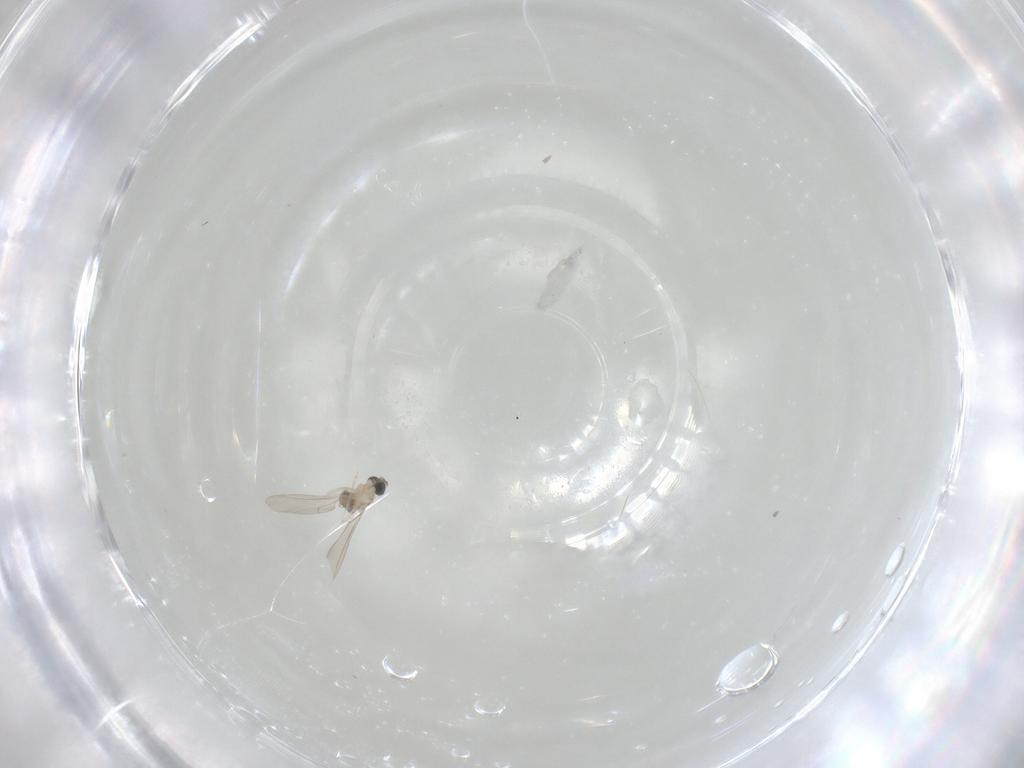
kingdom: Animalia
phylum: Arthropoda
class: Insecta
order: Diptera
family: Chironomidae
